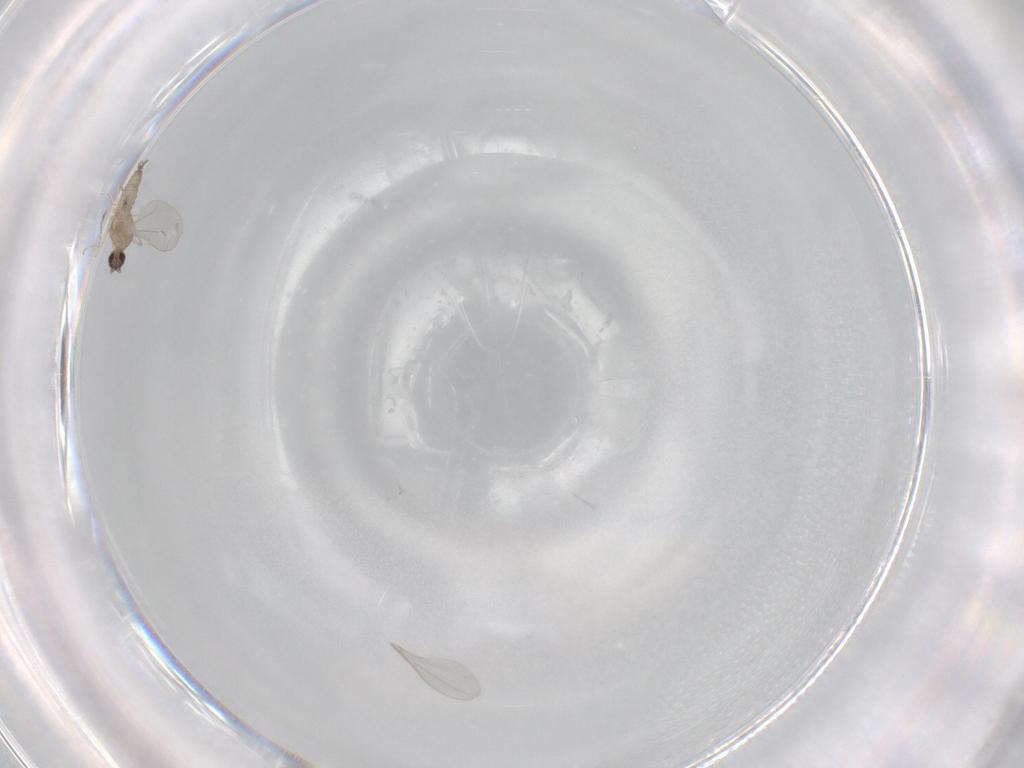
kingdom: Animalia
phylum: Arthropoda
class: Insecta
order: Diptera
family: Cecidomyiidae
